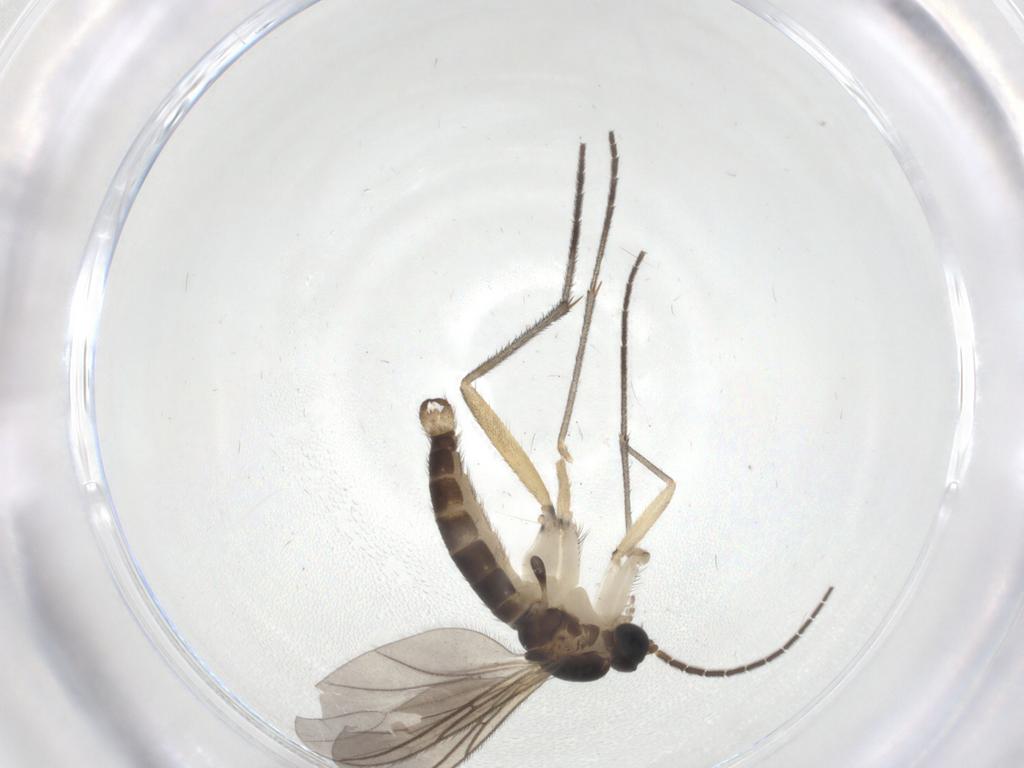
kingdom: Animalia
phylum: Arthropoda
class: Insecta
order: Diptera
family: Sciaridae
